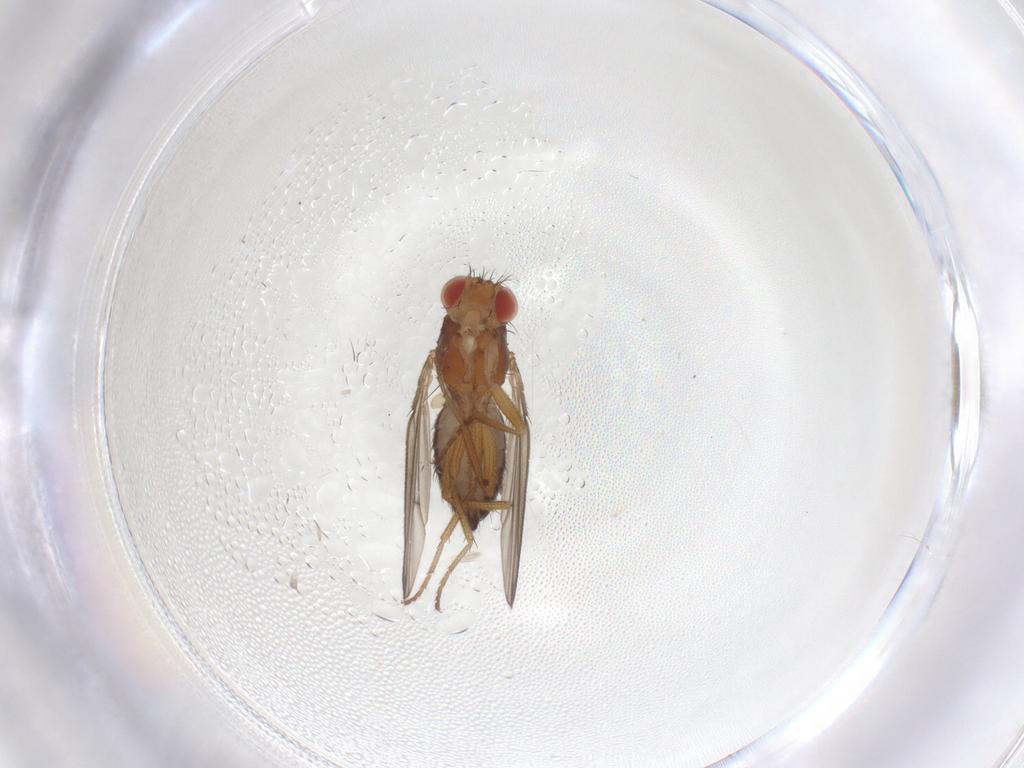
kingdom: Animalia
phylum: Arthropoda
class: Insecta
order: Diptera
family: Drosophilidae
